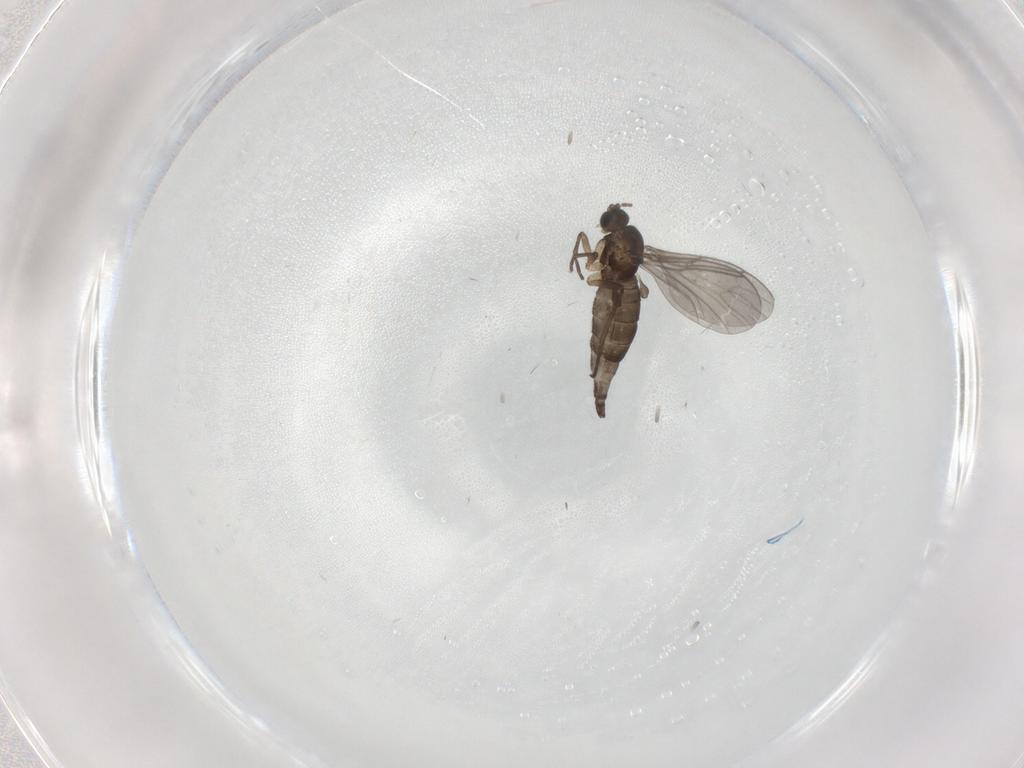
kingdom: Animalia
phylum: Arthropoda
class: Insecta
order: Diptera
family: Sciaridae
